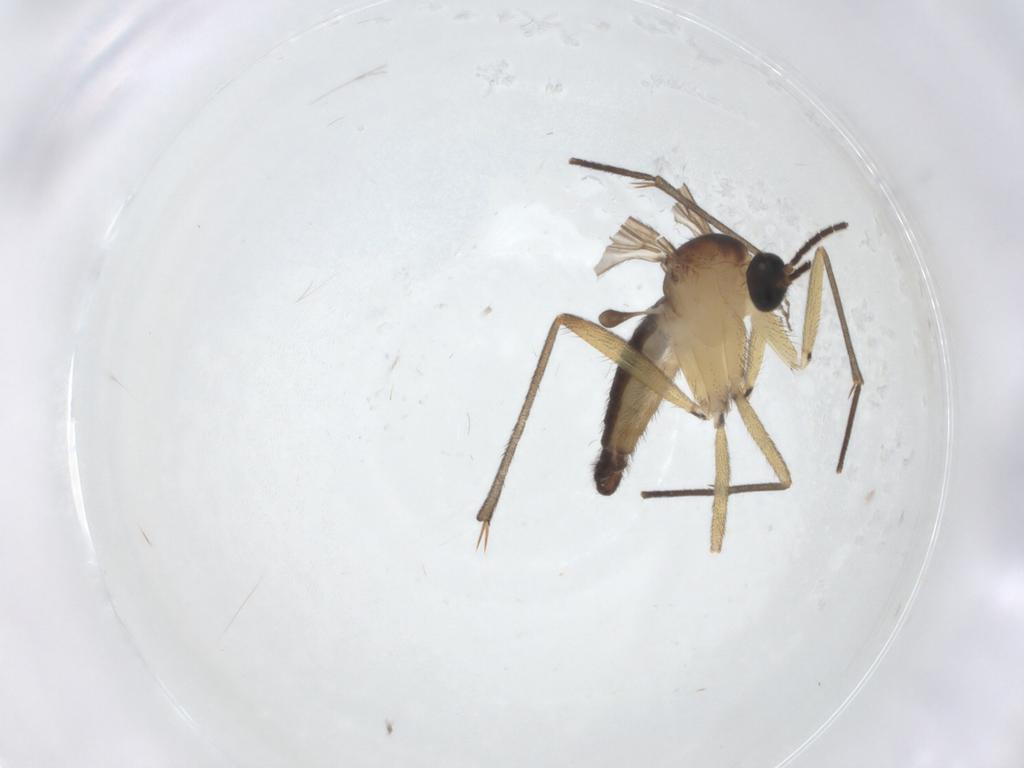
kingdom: Animalia
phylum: Arthropoda
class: Insecta
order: Diptera
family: Sciaridae
